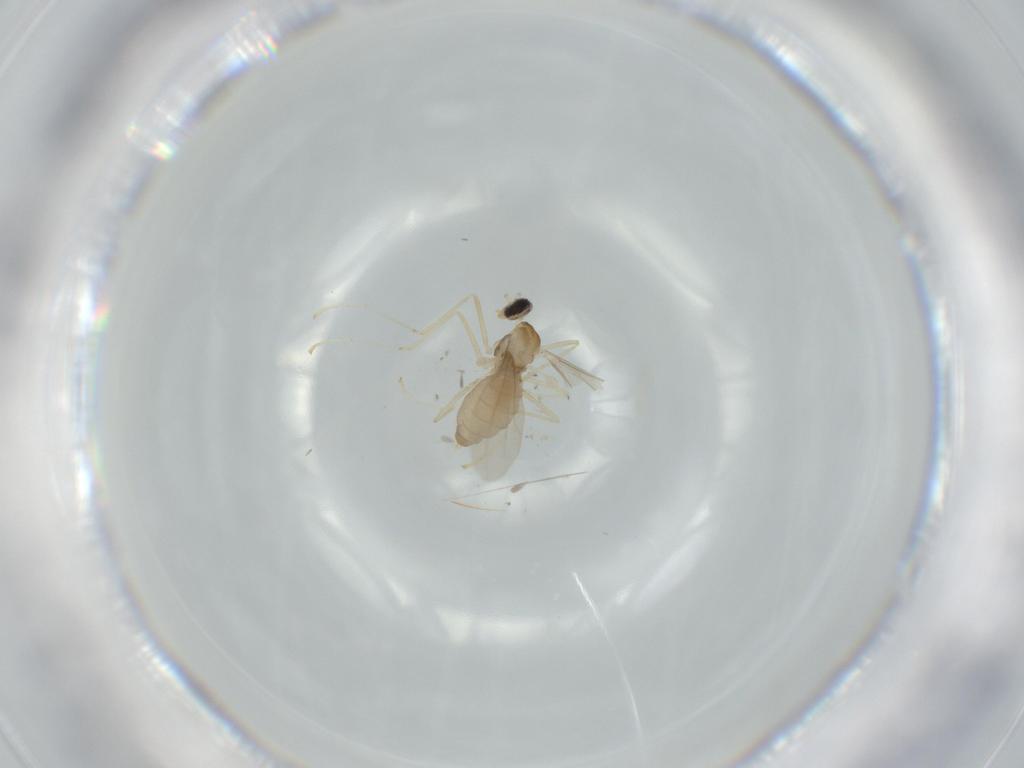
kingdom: Animalia
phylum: Arthropoda
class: Insecta
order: Diptera
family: Cecidomyiidae
